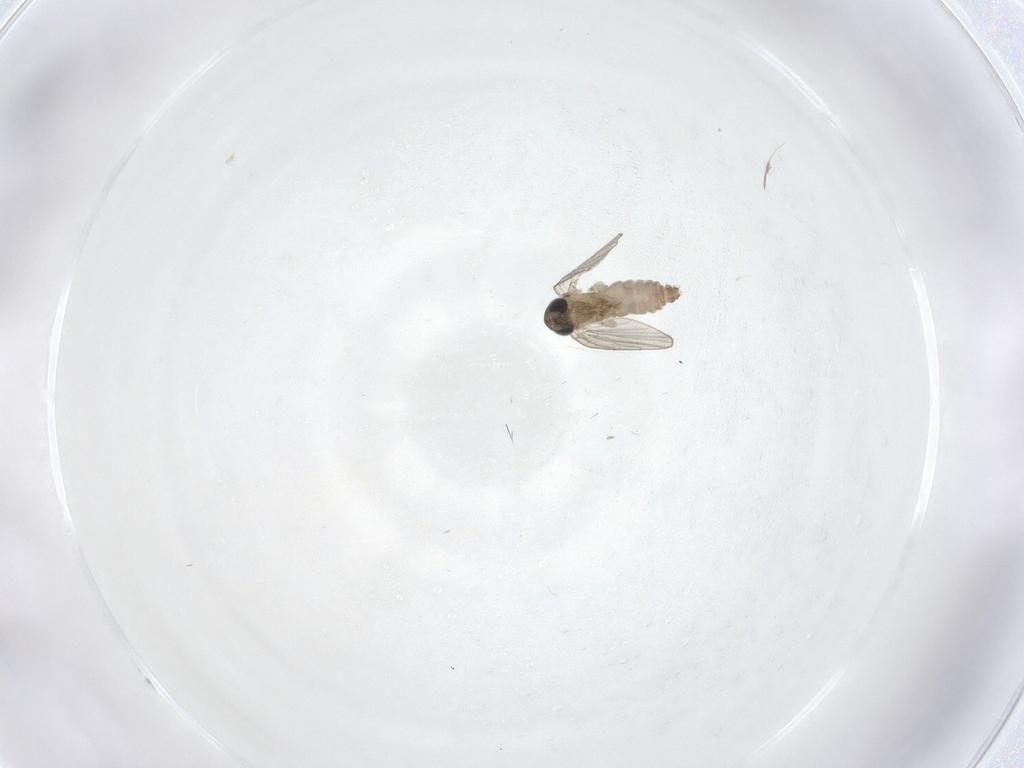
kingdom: Animalia
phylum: Arthropoda
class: Insecta
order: Diptera
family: Psychodidae
